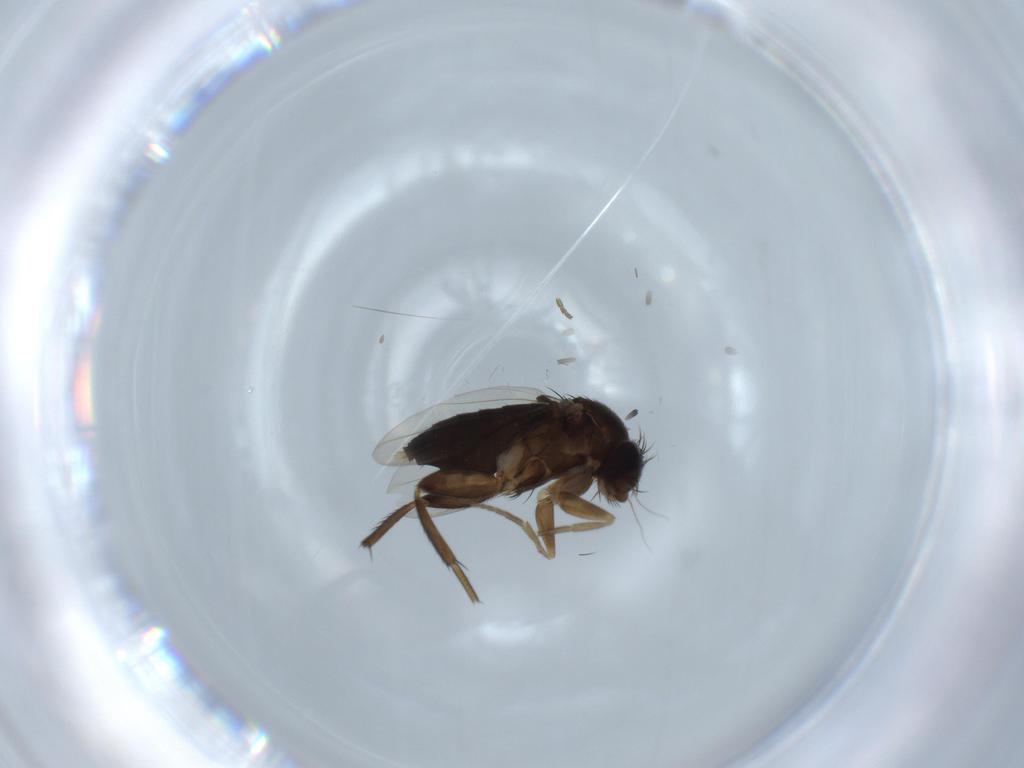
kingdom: Animalia
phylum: Arthropoda
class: Insecta
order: Diptera
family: Phoridae
